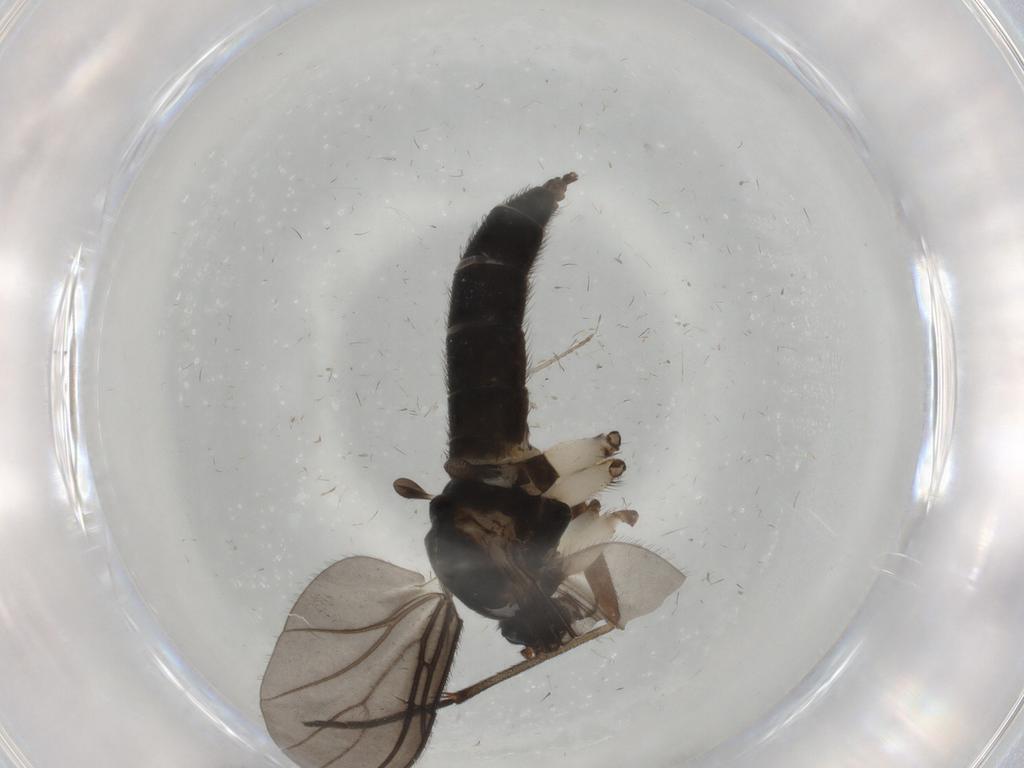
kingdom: Animalia
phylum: Arthropoda
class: Insecta
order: Diptera
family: Sciaridae
